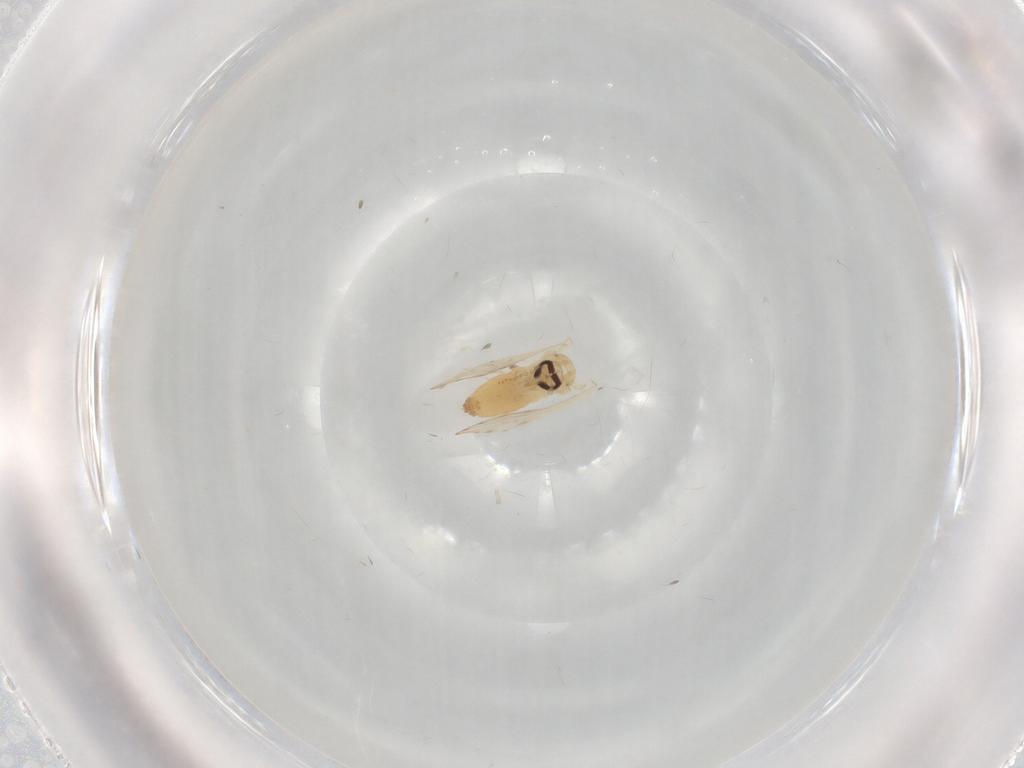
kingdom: Animalia
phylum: Arthropoda
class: Insecta
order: Diptera
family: Psychodidae
